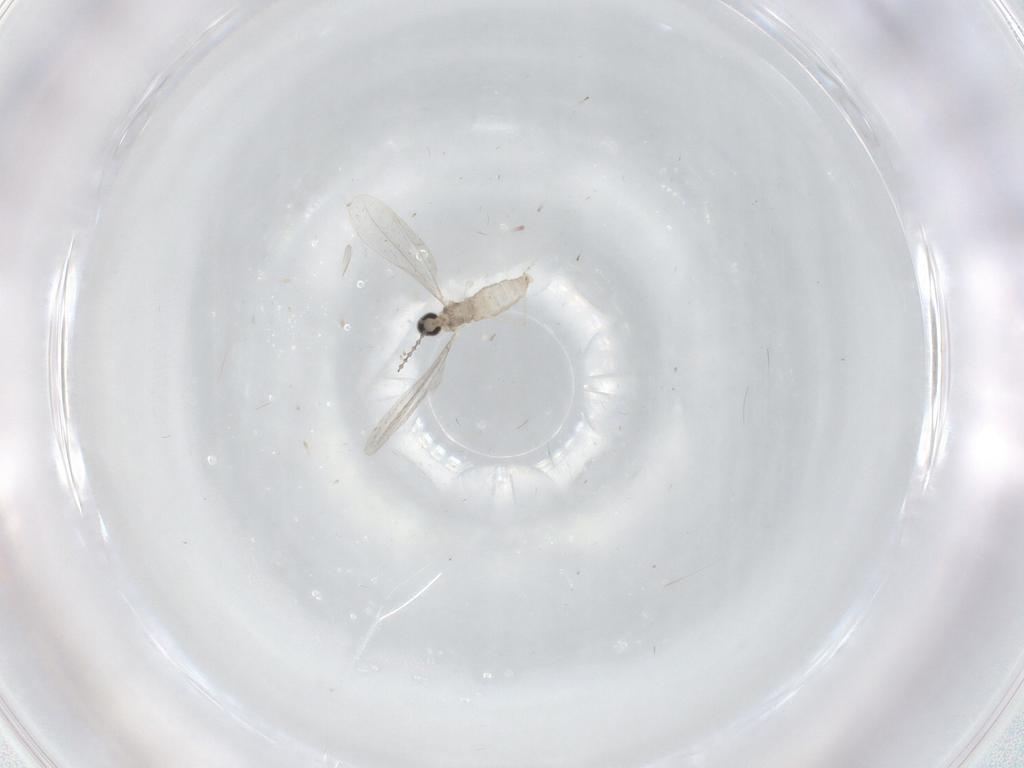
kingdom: Animalia
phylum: Arthropoda
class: Insecta
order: Diptera
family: Cecidomyiidae
